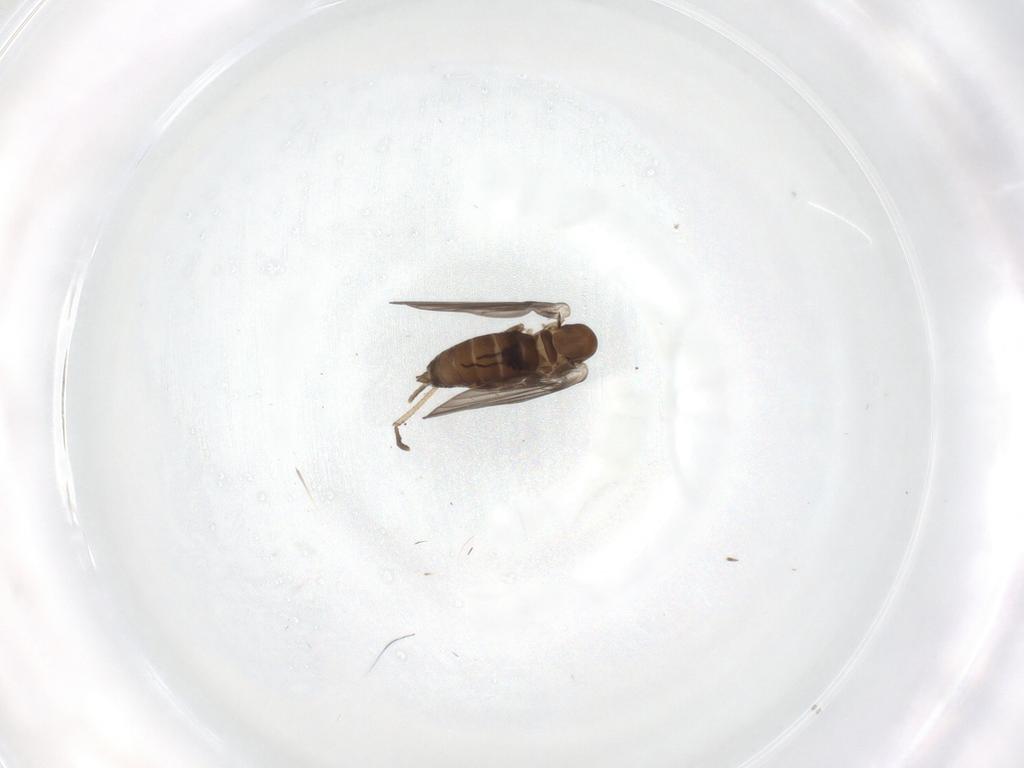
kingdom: Animalia
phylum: Arthropoda
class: Insecta
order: Diptera
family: Psychodidae
